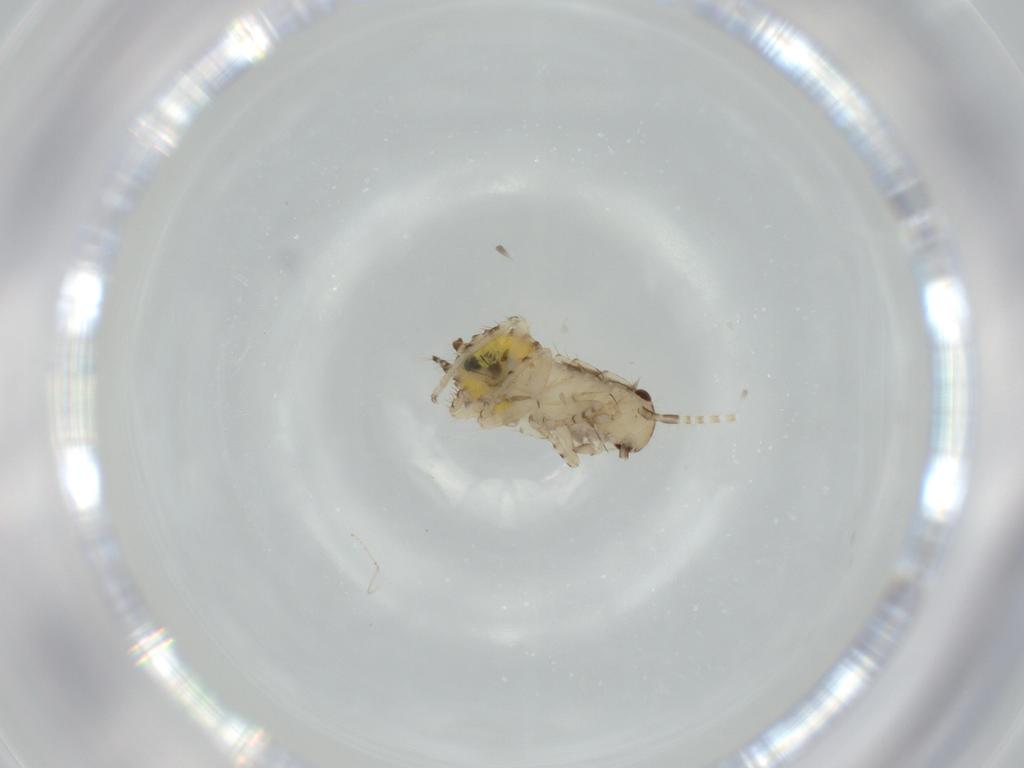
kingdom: Animalia
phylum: Arthropoda
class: Insecta
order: Blattodea
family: Ectobiidae
